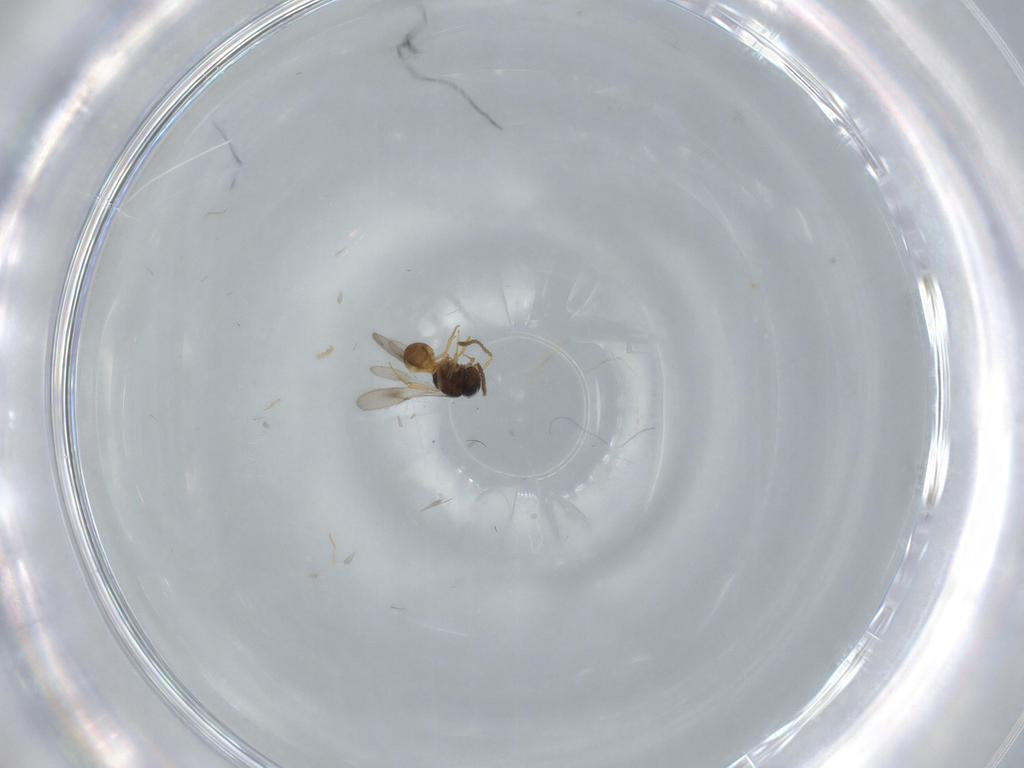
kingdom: Animalia
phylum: Arthropoda
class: Insecta
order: Hymenoptera
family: Scelionidae
